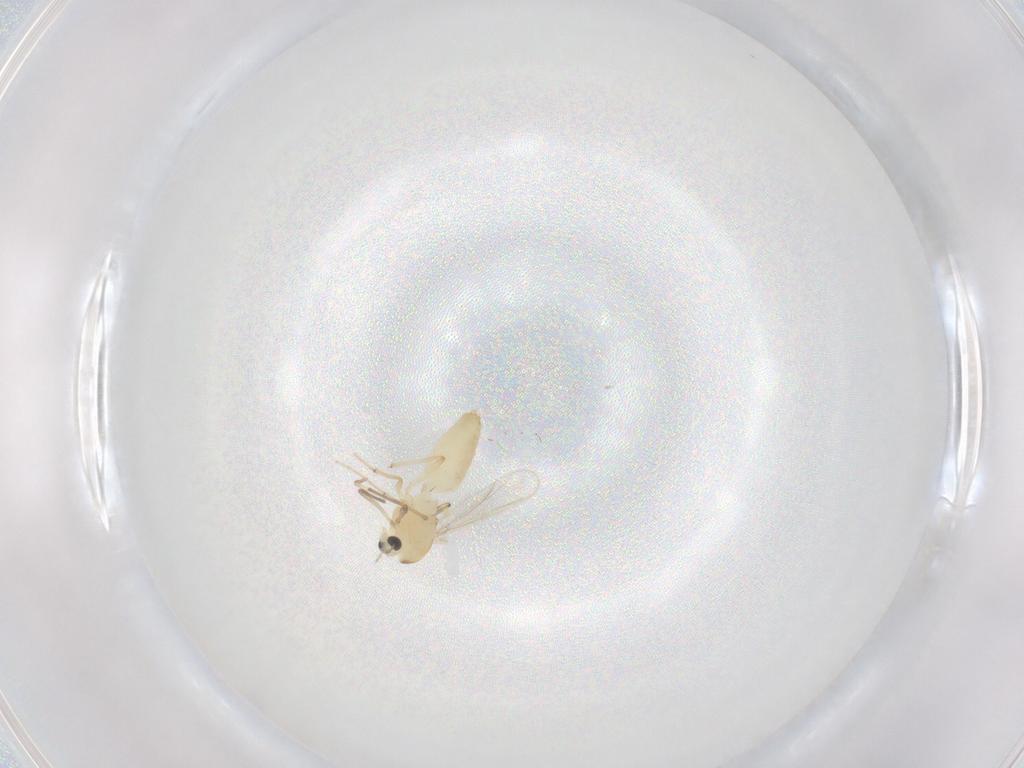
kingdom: Animalia
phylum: Arthropoda
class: Insecta
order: Diptera
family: Chironomidae
